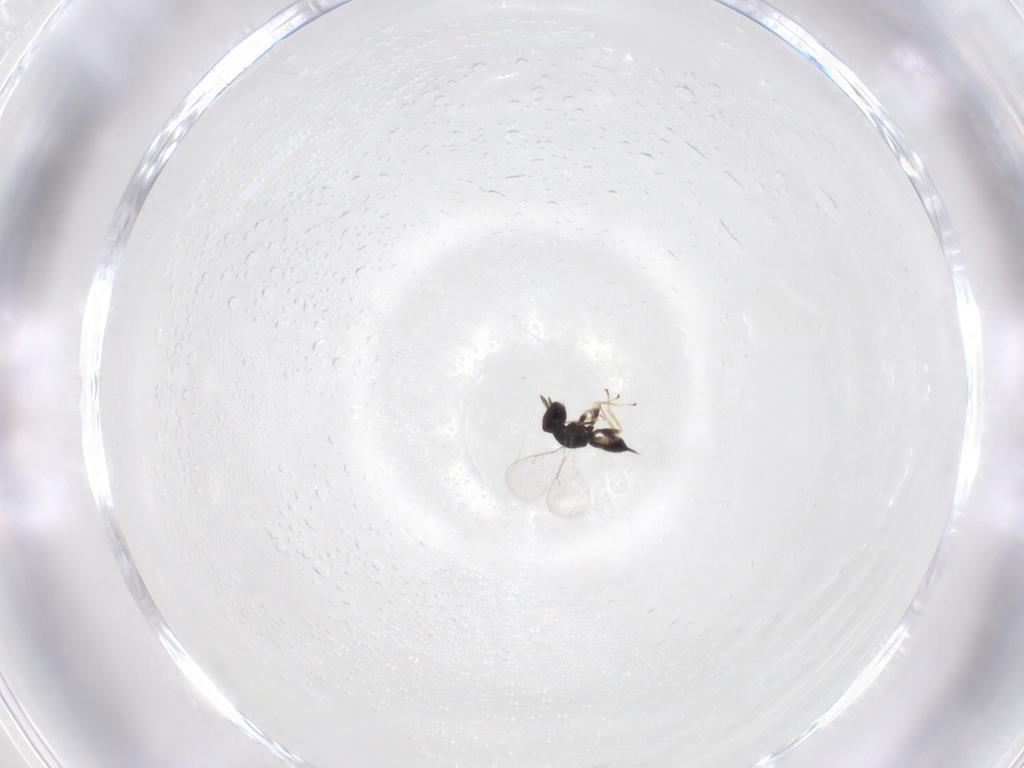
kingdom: Animalia
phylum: Arthropoda
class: Insecta
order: Hymenoptera
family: Eulophidae
